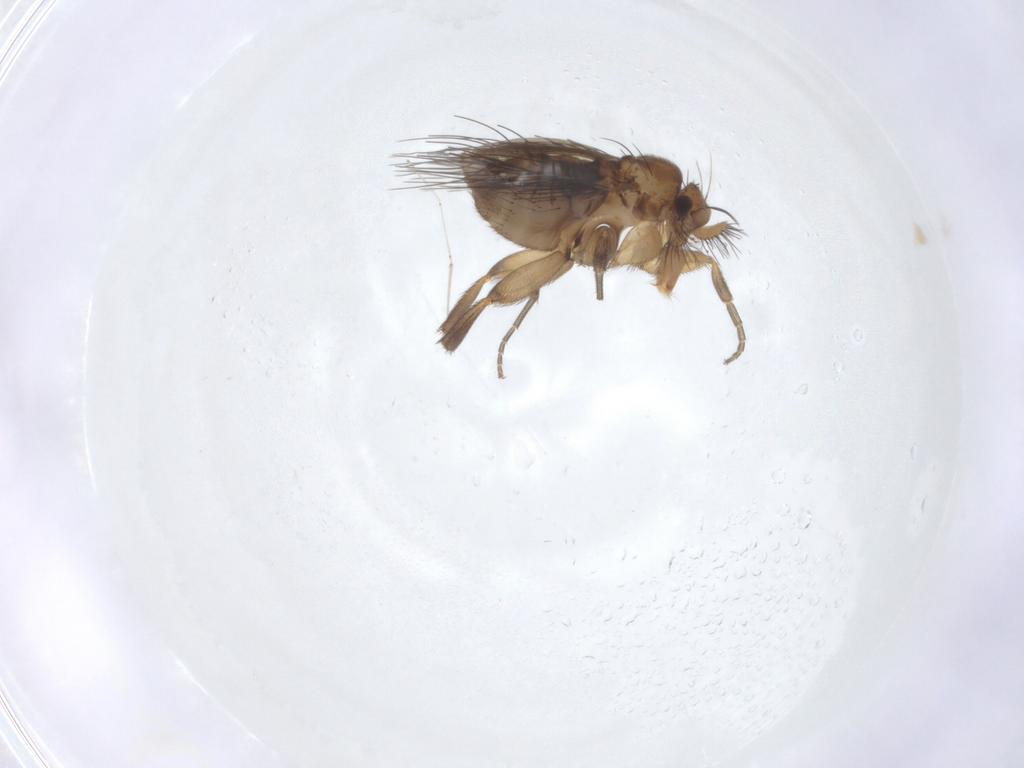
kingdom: Animalia
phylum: Arthropoda
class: Insecta
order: Diptera
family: Phoridae
